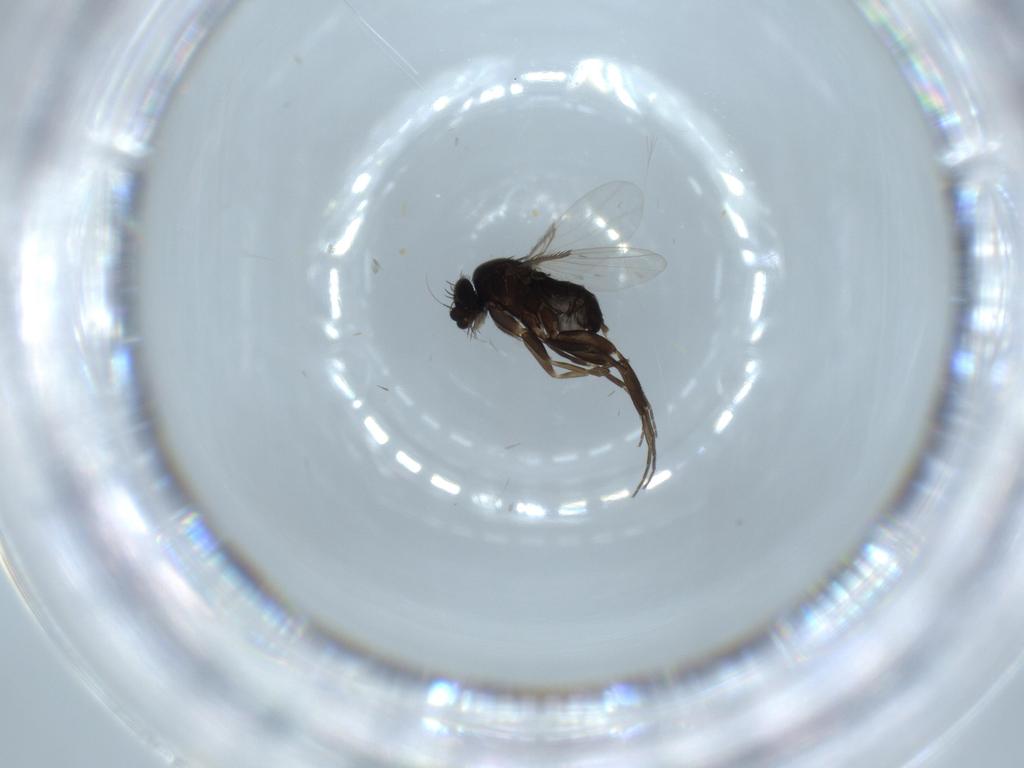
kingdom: Animalia
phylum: Arthropoda
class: Insecta
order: Diptera
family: Phoridae
